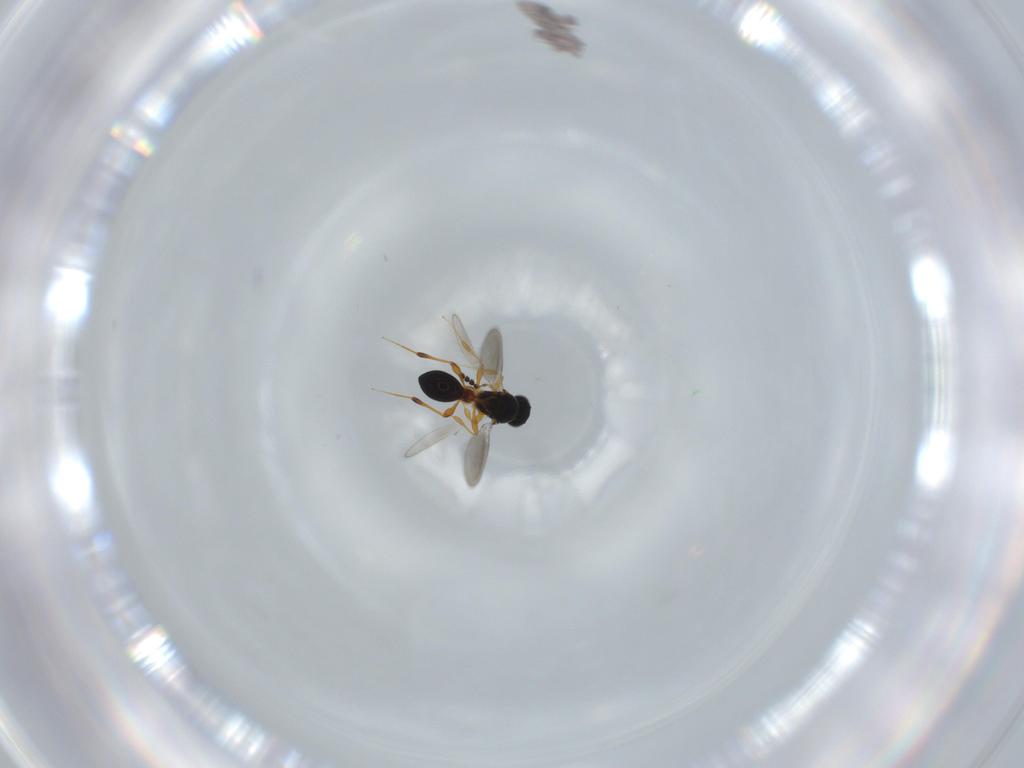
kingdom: Animalia
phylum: Arthropoda
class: Insecta
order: Hymenoptera
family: Platygastridae
